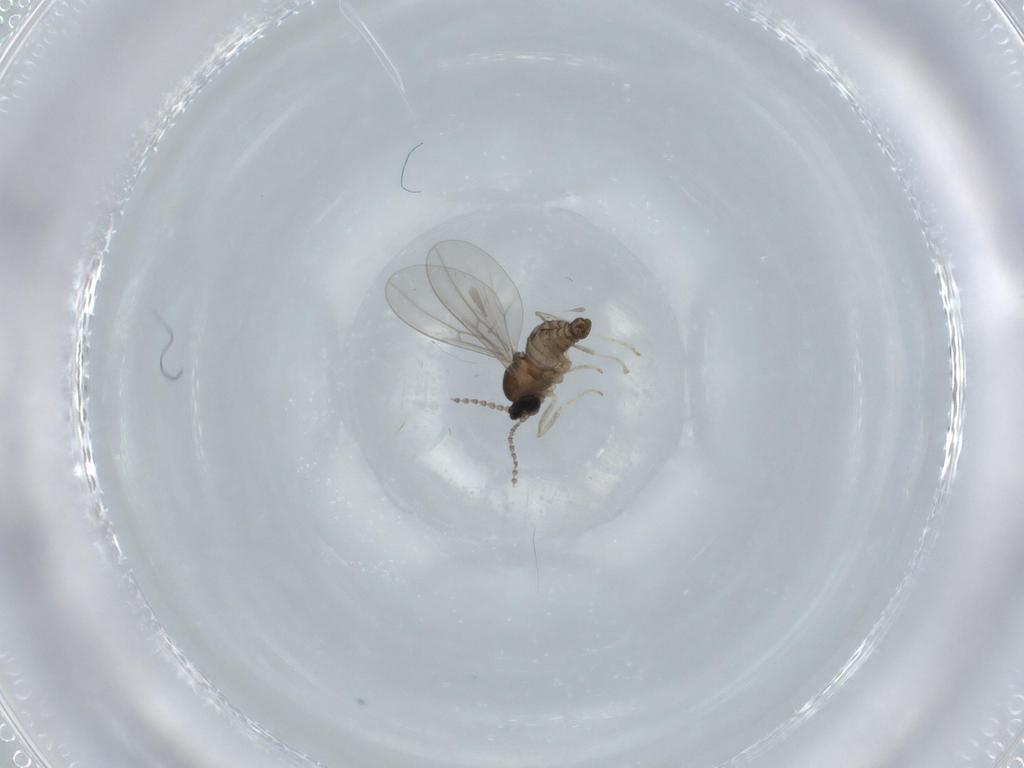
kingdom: Animalia
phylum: Arthropoda
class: Insecta
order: Diptera
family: Cecidomyiidae
